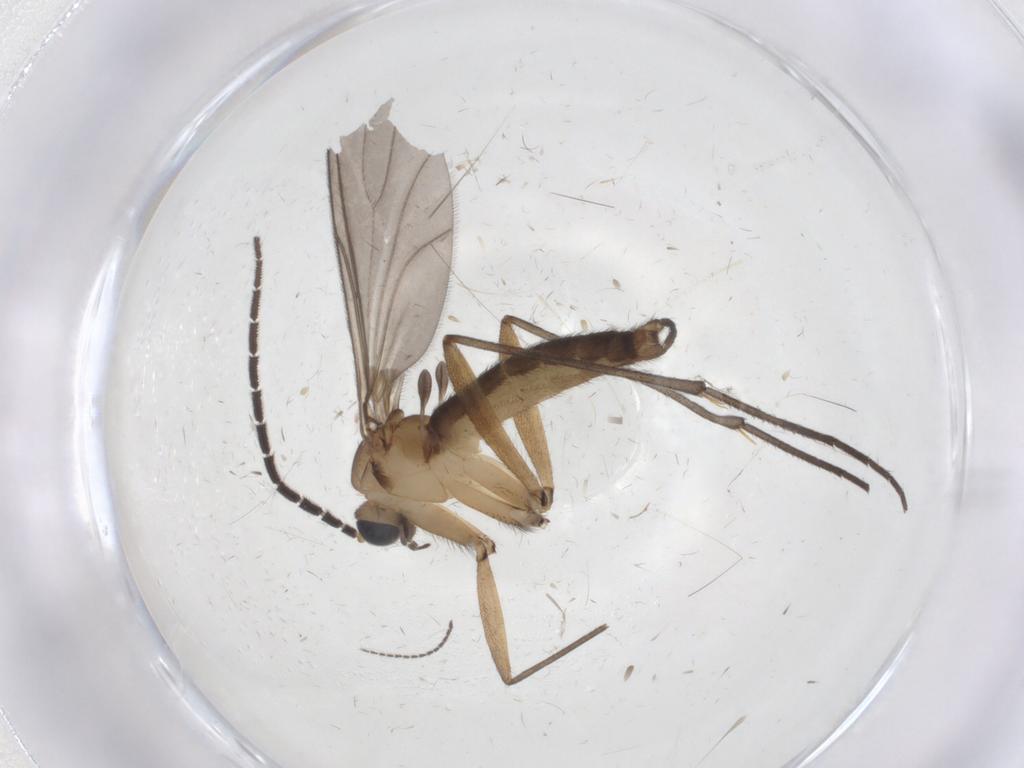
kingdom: Animalia
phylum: Arthropoda
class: Insecta
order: Diptera
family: Sciaridae
